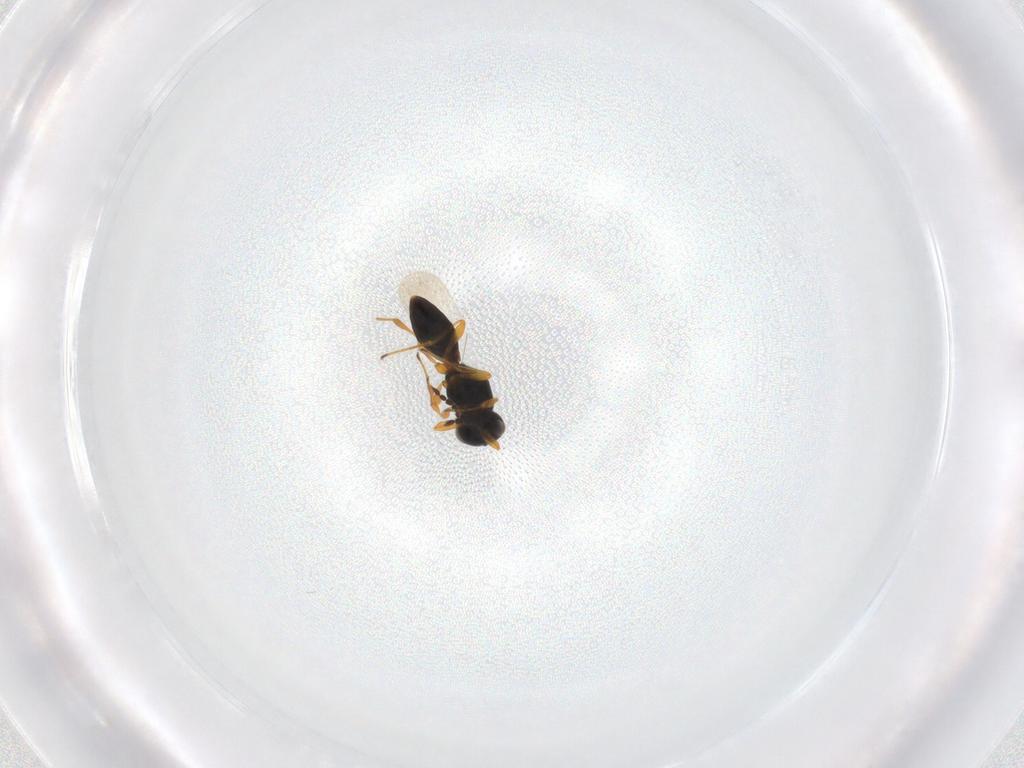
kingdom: Animalia
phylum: Arthropoda
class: Insecta
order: Hymenoptera
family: Platygastridae
